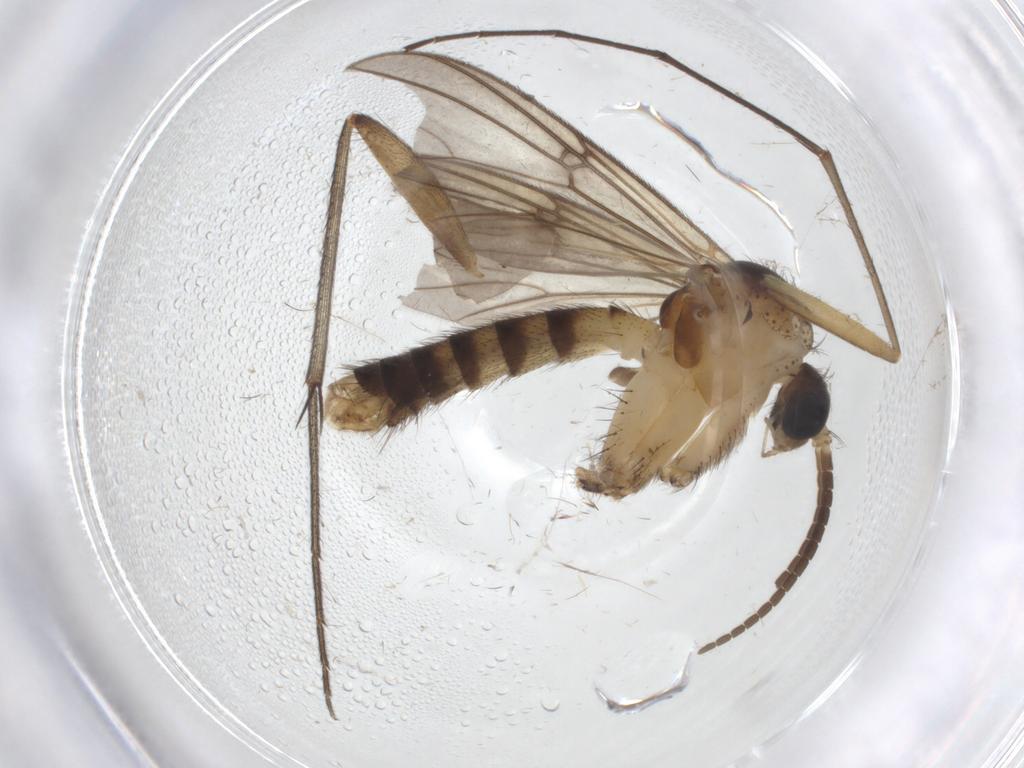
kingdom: Animalia
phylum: Arthropoda
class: Insecta
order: Diptera
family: Mycetophilidae
